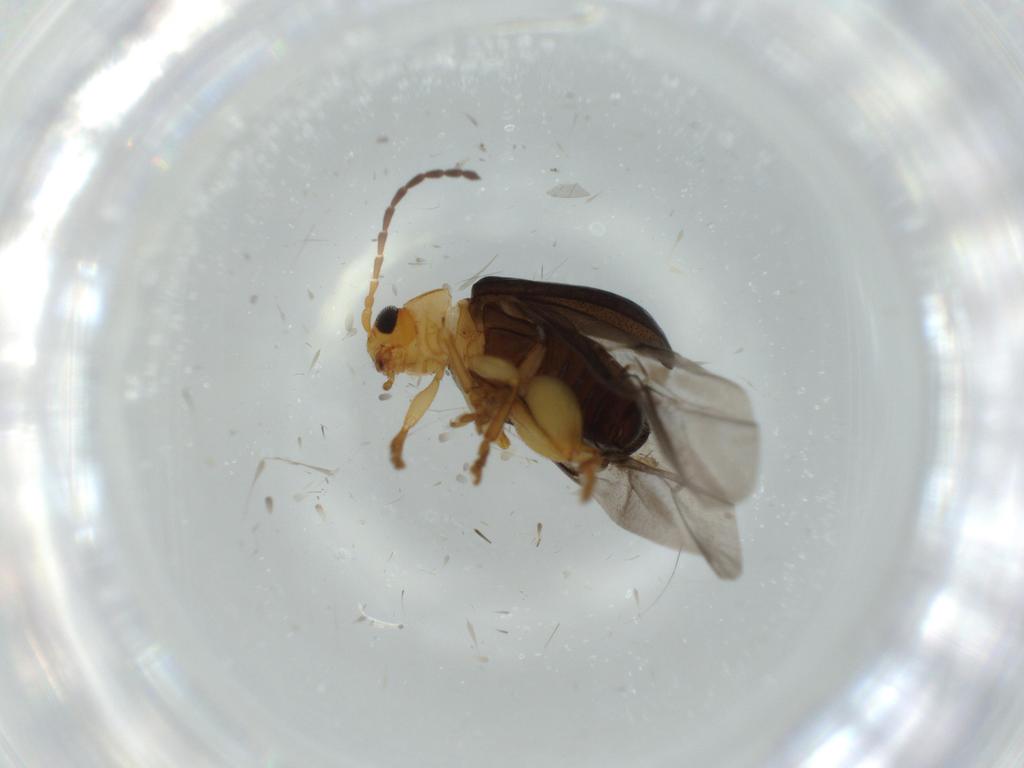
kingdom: Animalia
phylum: Arthropoda
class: Insecta
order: Coleoptera
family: Chrysomelidae
